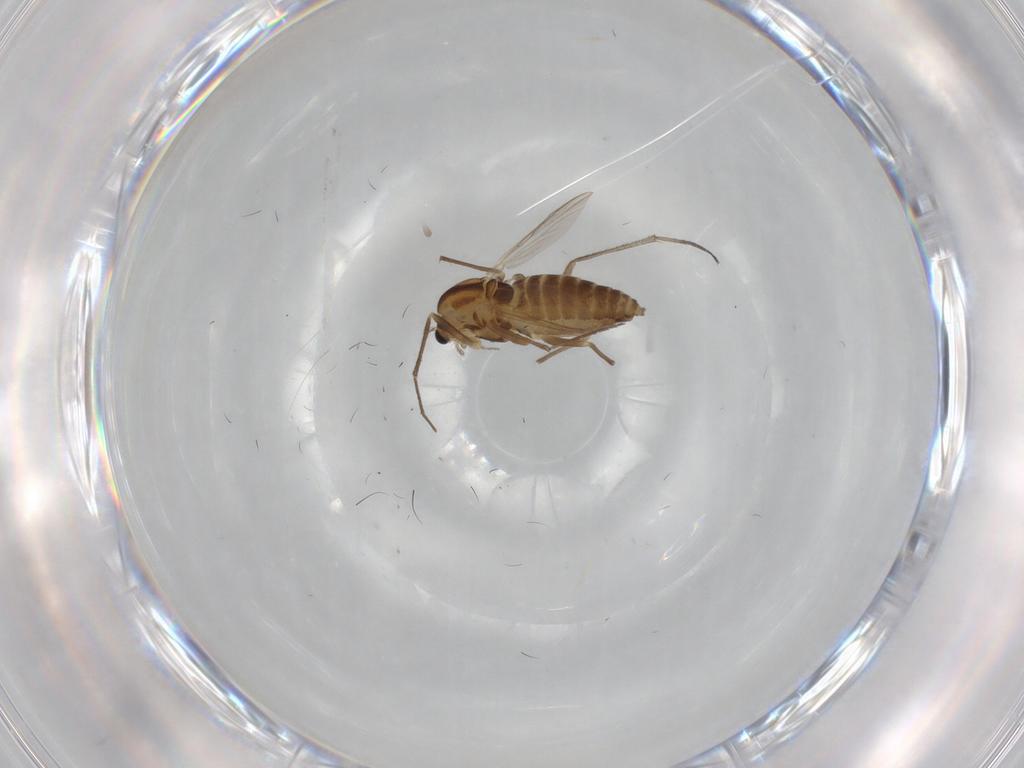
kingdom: Animalia
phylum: Arthropoda
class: Insecta
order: Diptera
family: Chironomidae
